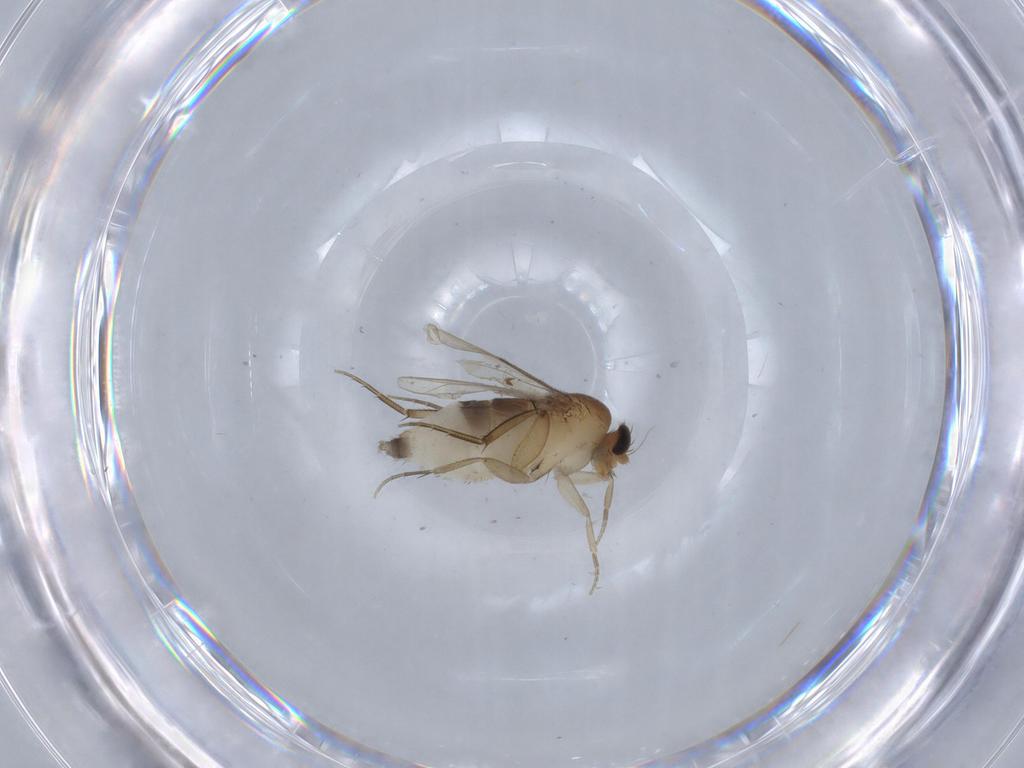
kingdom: Animalia
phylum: Arthropoda
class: Insecta
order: Diptera
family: Phoridae
